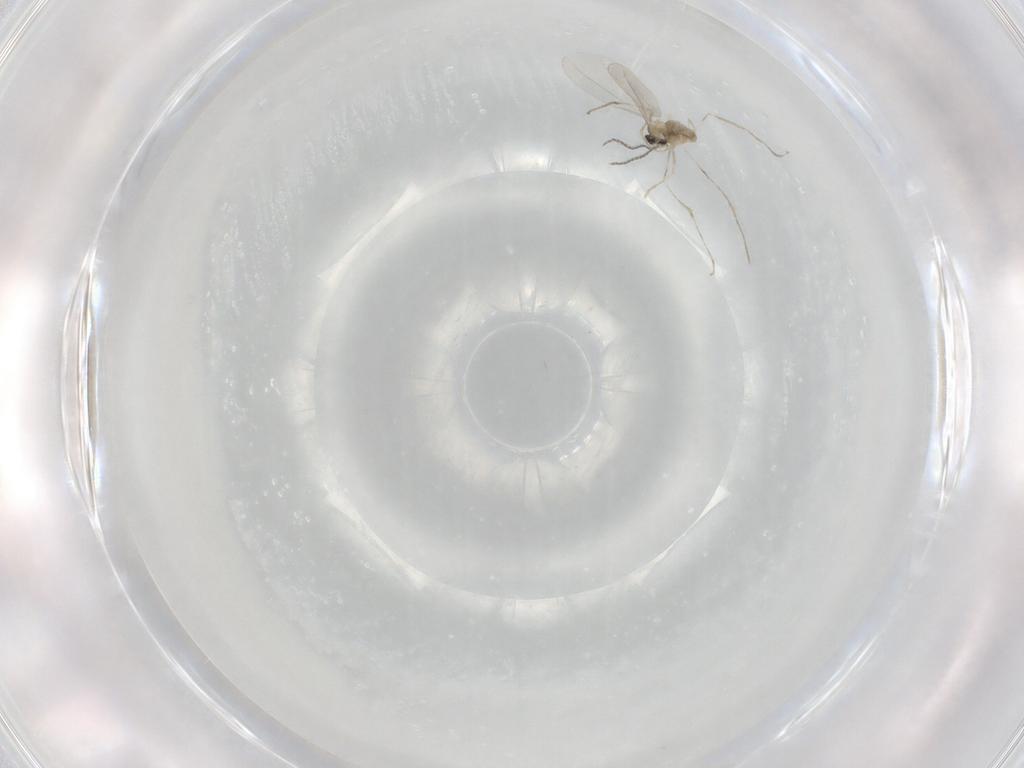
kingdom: Animalia
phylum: Arthropoda
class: Insecta
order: Diptera
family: Cecidomyiidae
